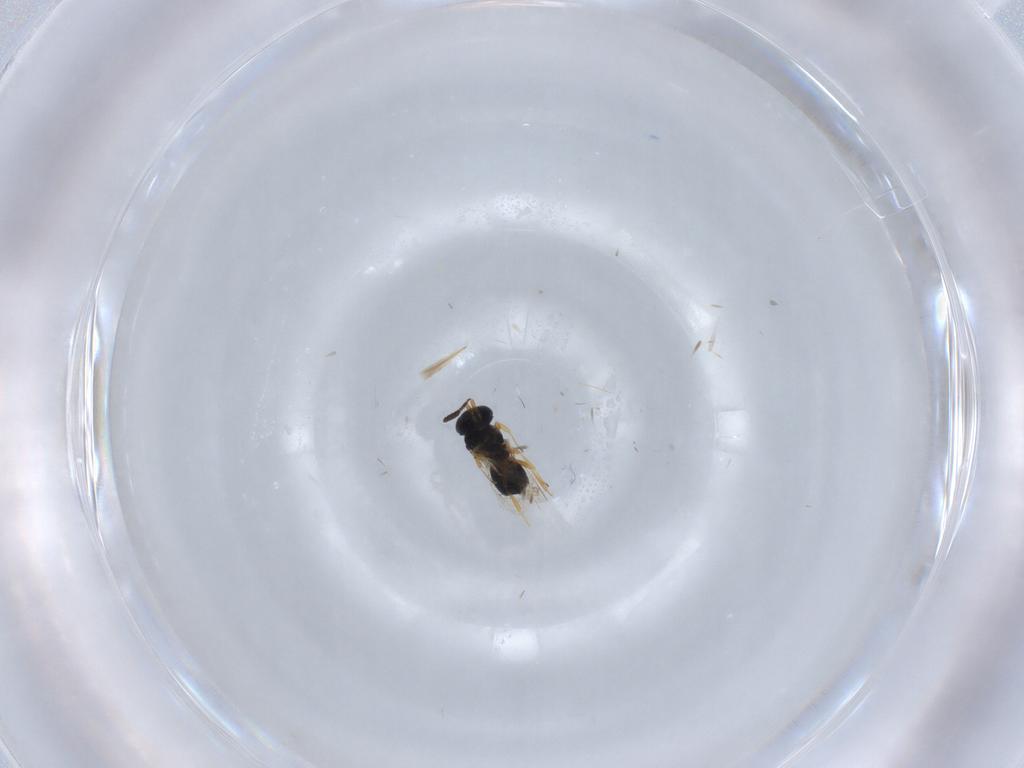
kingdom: Animalia
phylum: Arthropoda
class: Insecta
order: Hymenoptera
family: Scelionidae
